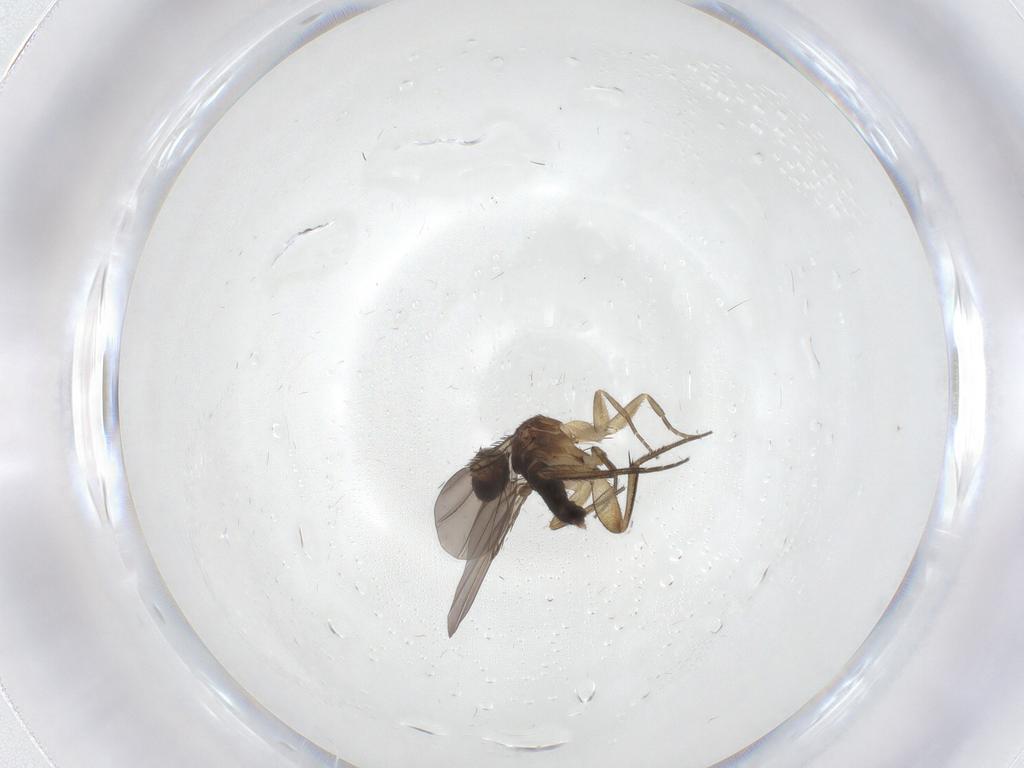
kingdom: Animalia
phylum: Arthropoda
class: Insecta
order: Diptera
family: Phoridae
